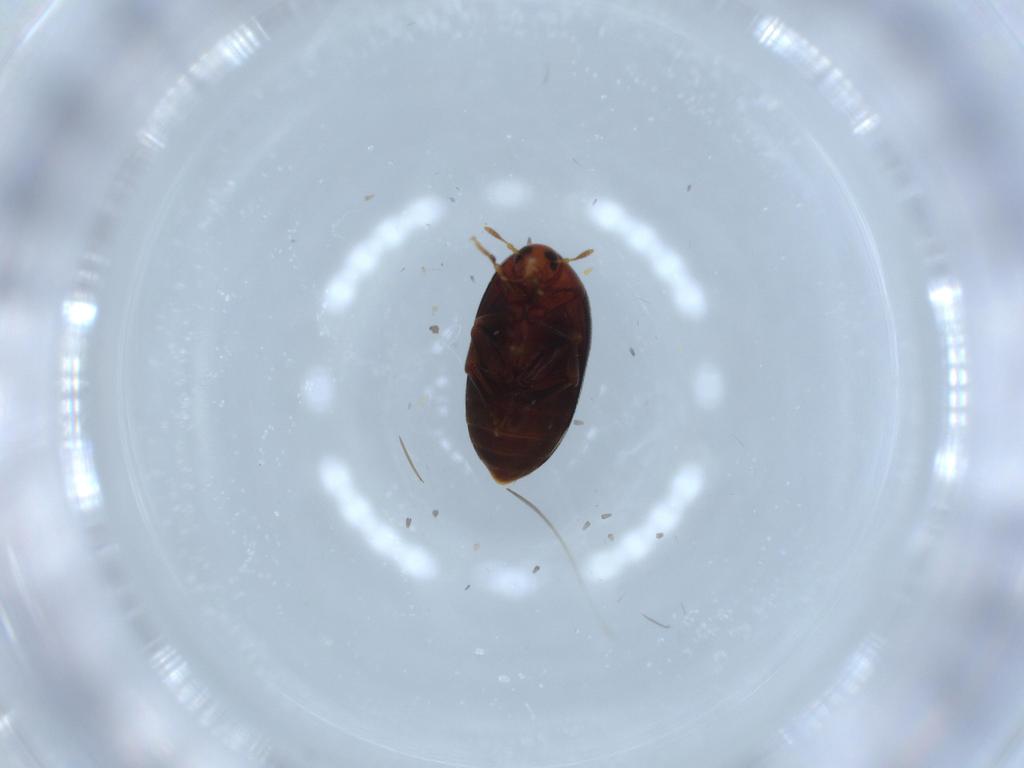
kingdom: Animalia
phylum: Arthropoda
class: Insecta
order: Coleoptera
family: Melandryidae
